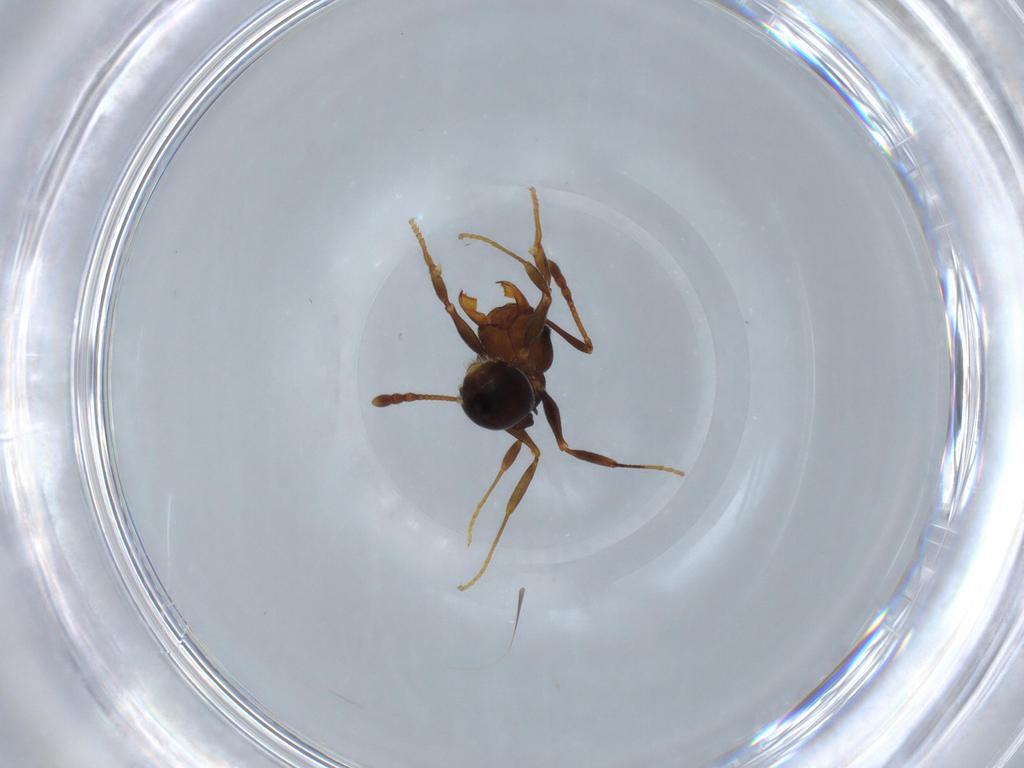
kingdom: Animalia
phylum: Arthropoda
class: Insecta
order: Hymenoptera
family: Formicidae
